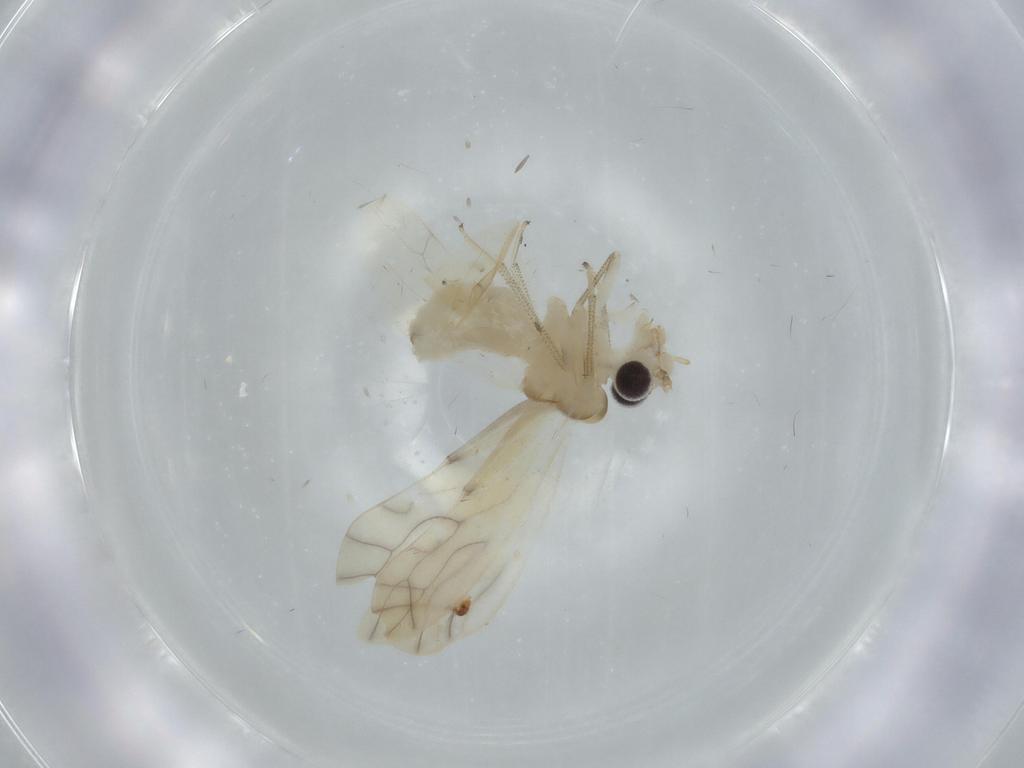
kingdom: Animalia
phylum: Arthropoda
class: Insecta
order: Psocodea
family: Caeciliusidae
